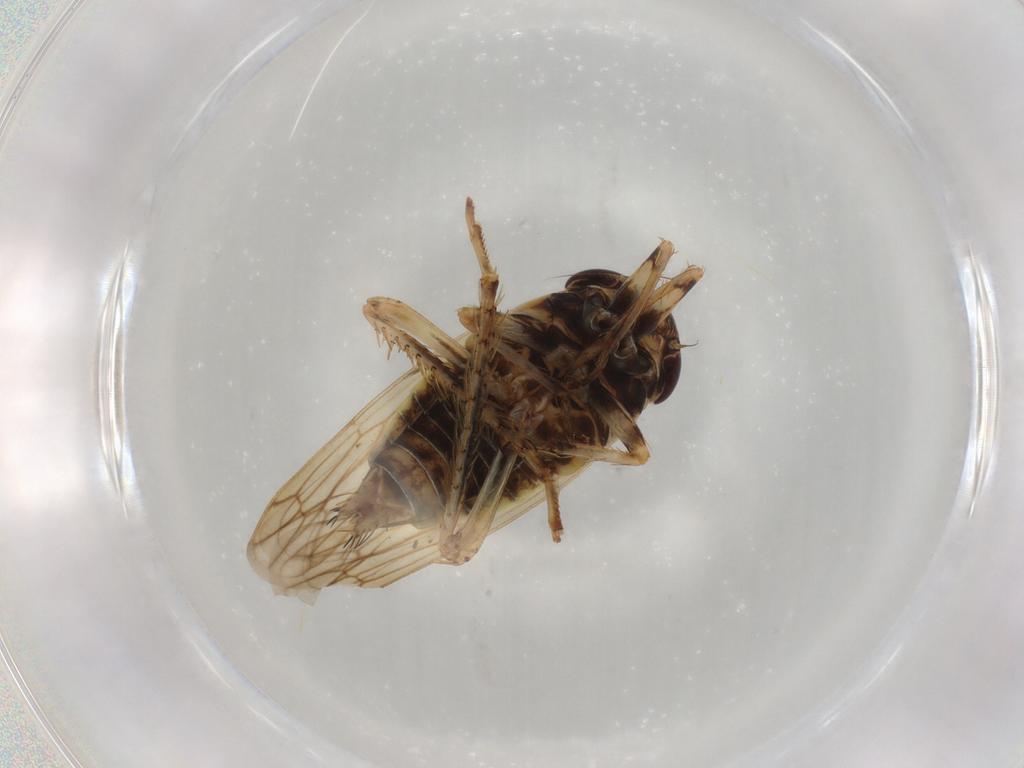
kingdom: Animalia
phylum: Arthropoda
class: Insecta
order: Hemiptera
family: Cicadellidae
